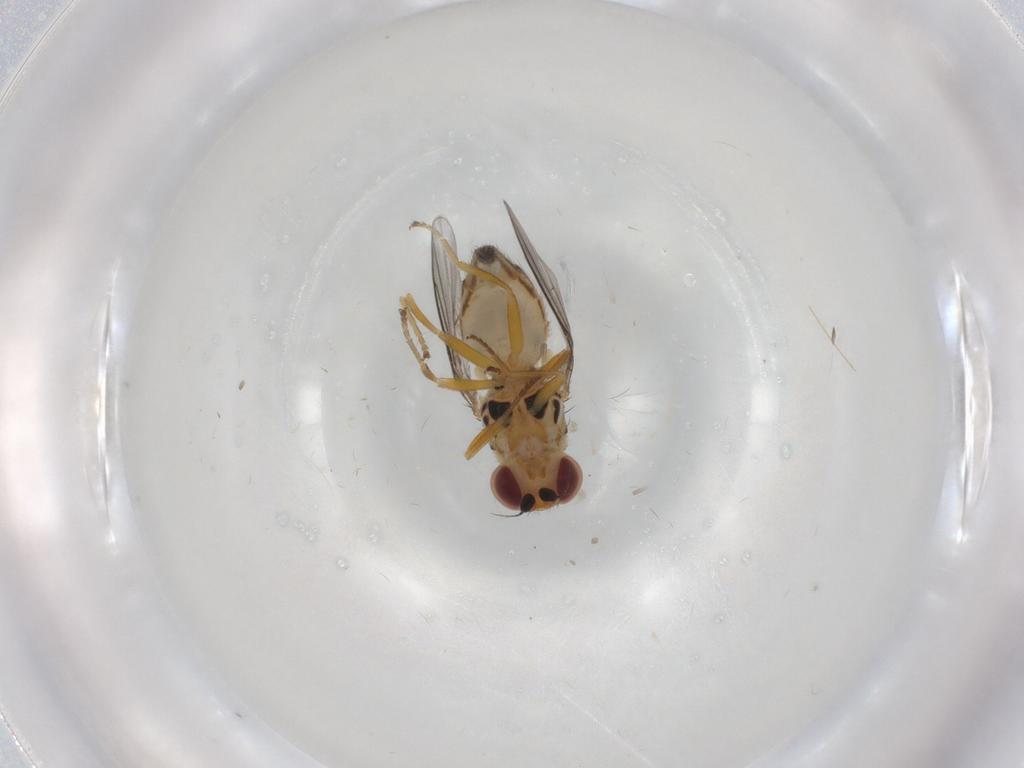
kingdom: Animalia
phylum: Arthropoda
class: Insecta
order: Diptera
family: Chloropidae
